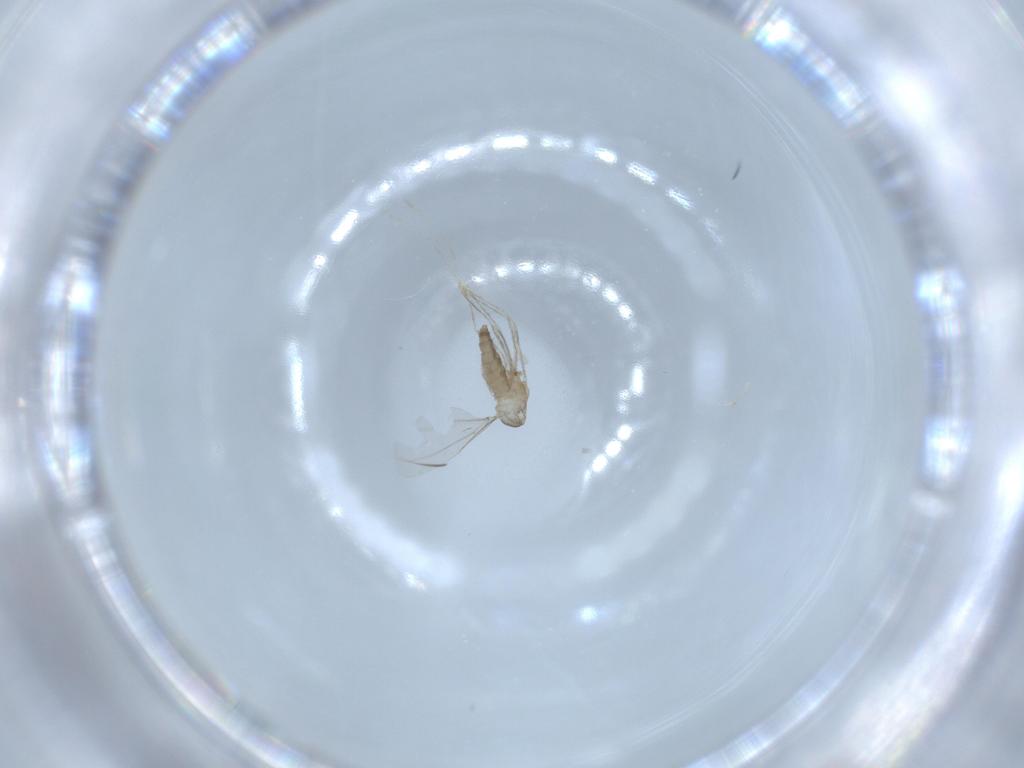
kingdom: Animalia
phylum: Arthropoda
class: Insecta
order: Diptera
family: Cecidomyiidae
